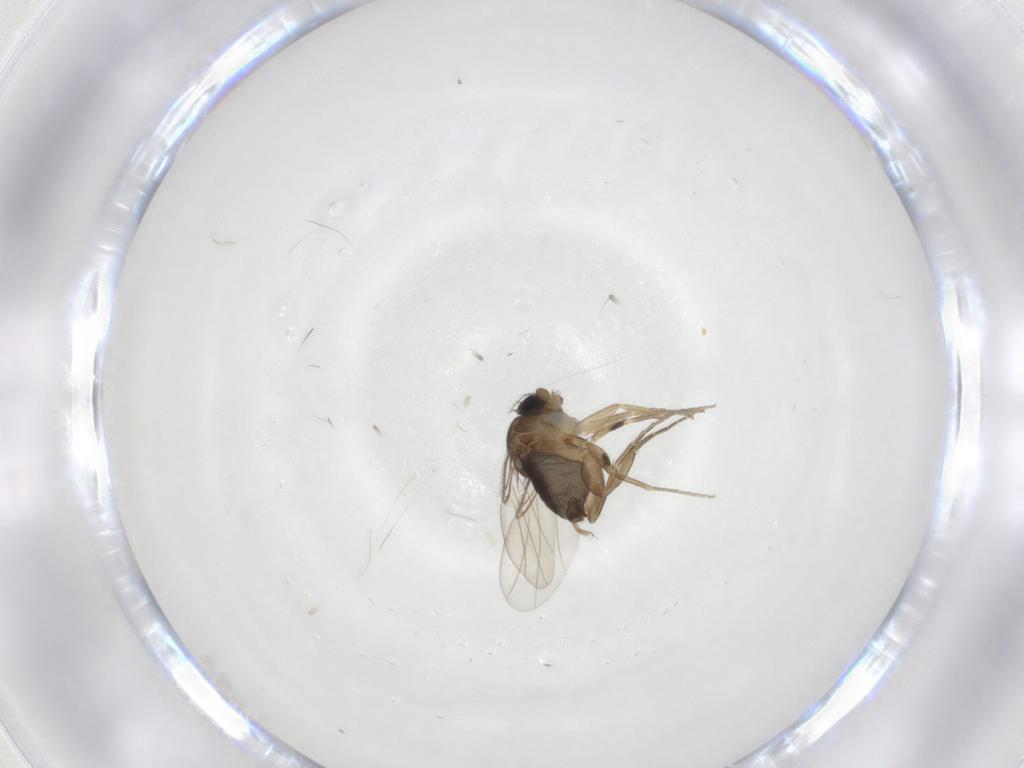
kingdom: Animalia
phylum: Arthropoda
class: Insecta
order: Diptera
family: Phoridae
